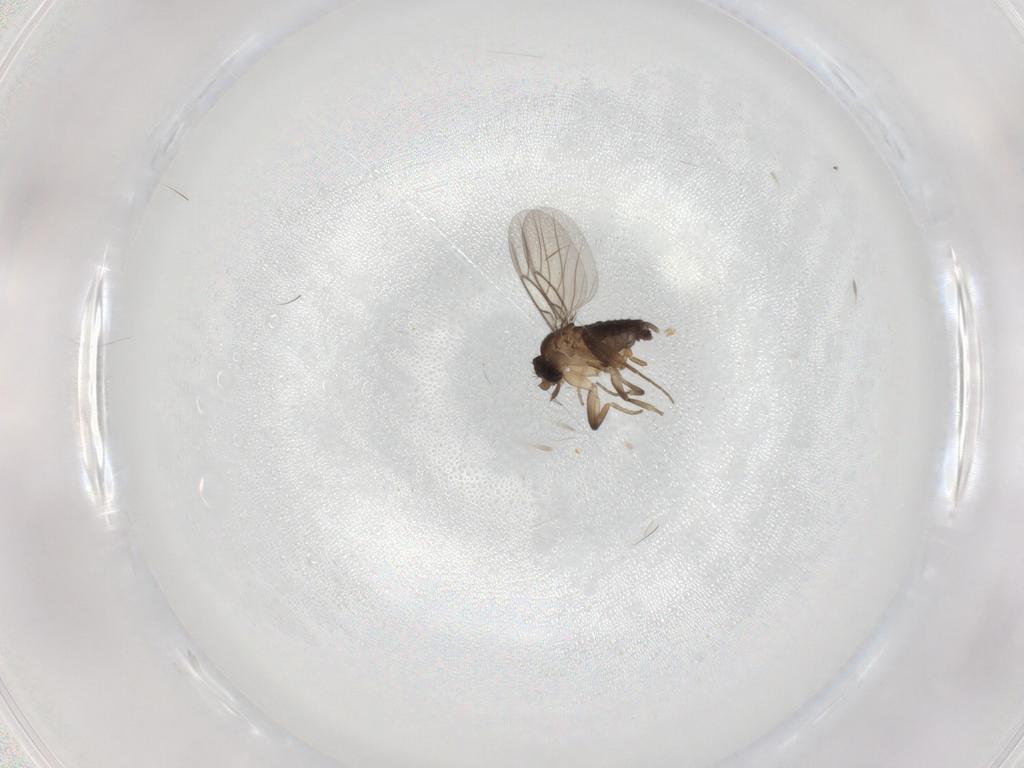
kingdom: Animalia
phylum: Arthropoda
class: Insecta
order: Diptera
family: Phoridae
